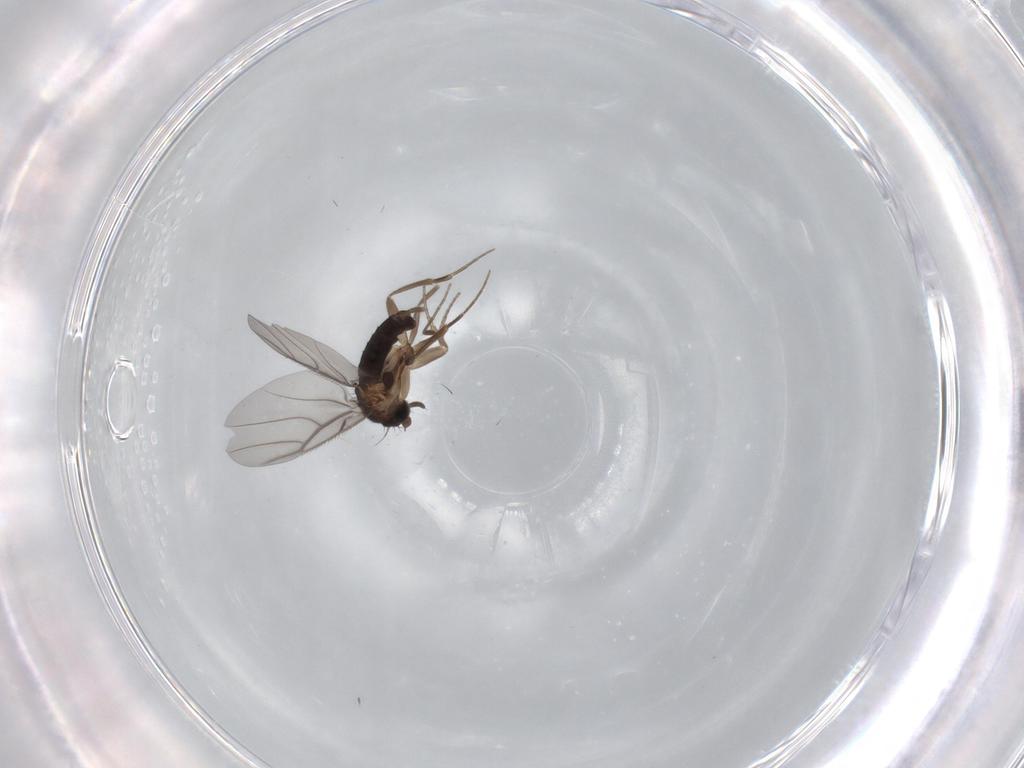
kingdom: Animalia
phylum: Arthropoda
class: Insecta
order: Diptera
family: Phoridae
